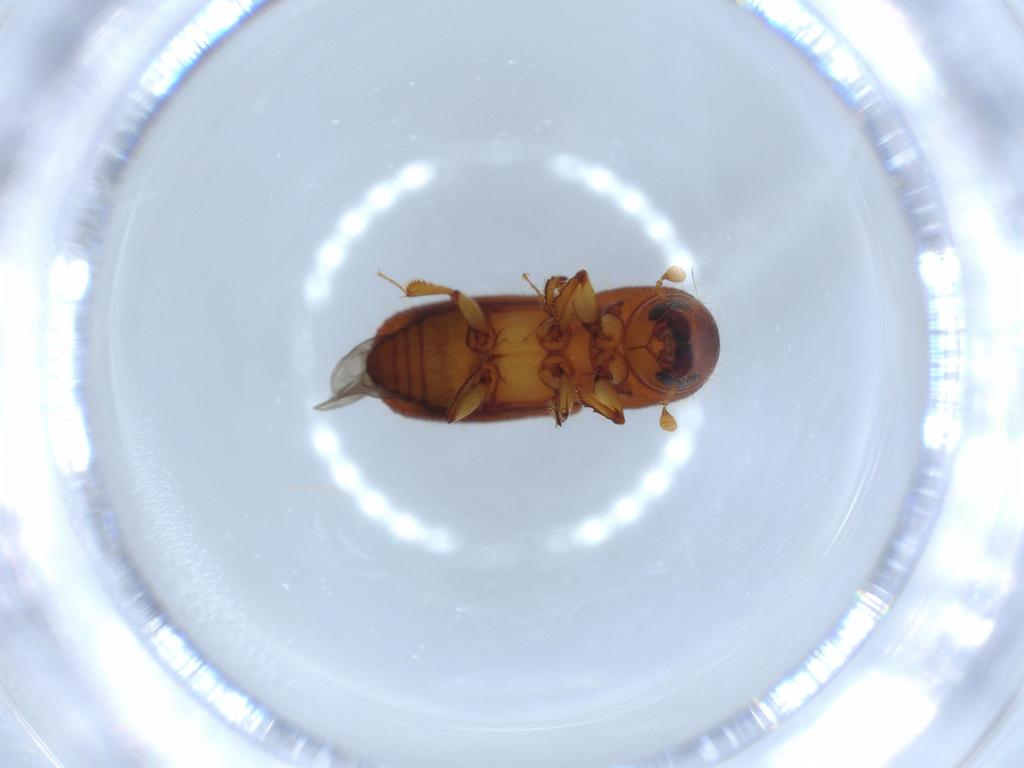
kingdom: Animalia
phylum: Arthropoda
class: Insecta
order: Coleoptera
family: Curculionidae
